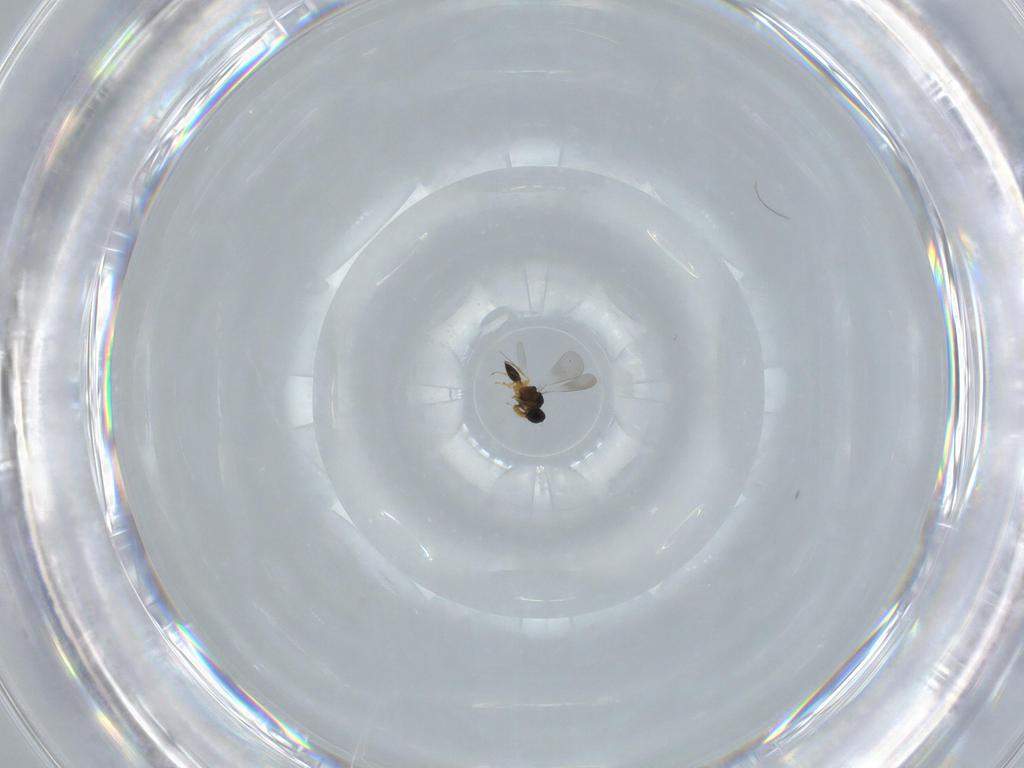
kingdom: Animalia
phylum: Arthropoda
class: Insecta
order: Hymenoptera
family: Platygastridae
